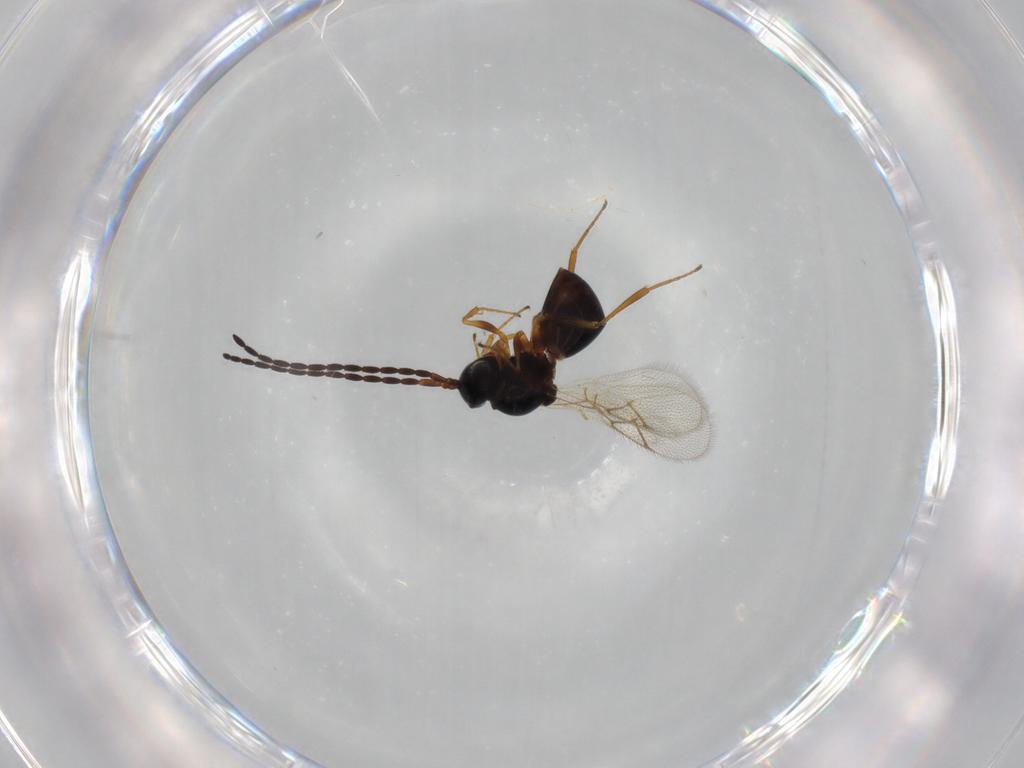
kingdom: Animalia
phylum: Arthropoda
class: Insecta
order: Hymenoptera
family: Figitidae
